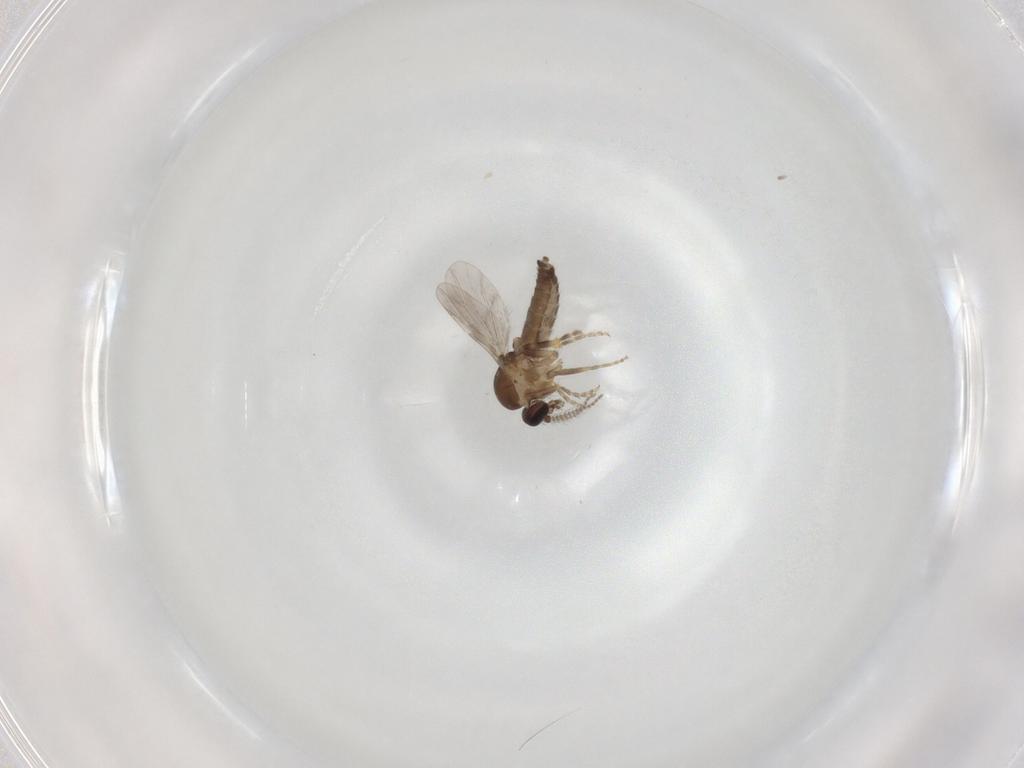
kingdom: Animalia
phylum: Arthropoda
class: Insecta
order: Diptera
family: Ceratopogonidae
